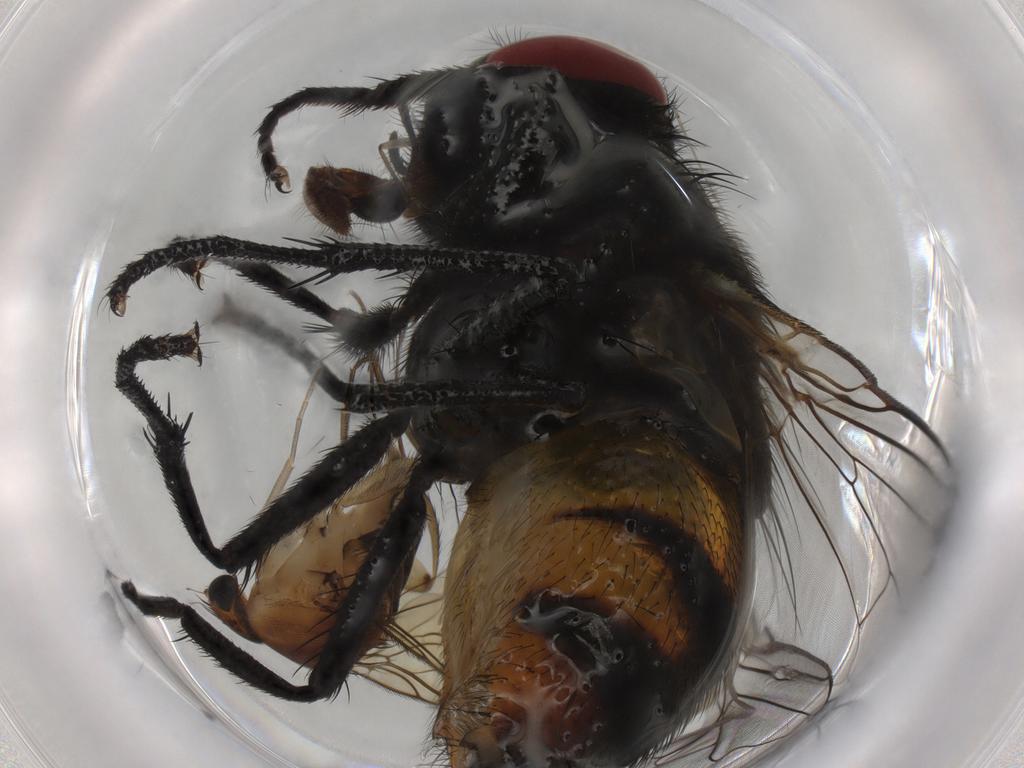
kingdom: Animalia
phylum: Arthropoda
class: Insecta
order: Diptera
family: Phoridae
